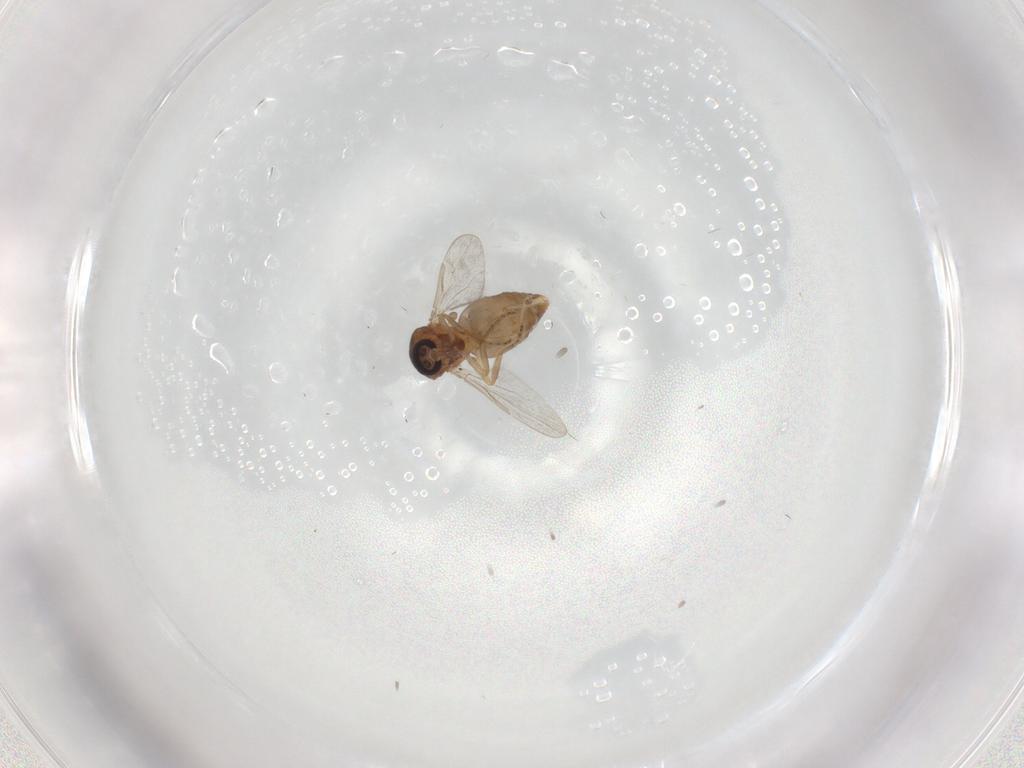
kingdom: Animalia
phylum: Arthropoda
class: Insecta
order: Diptera
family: Ceratopogonidae
